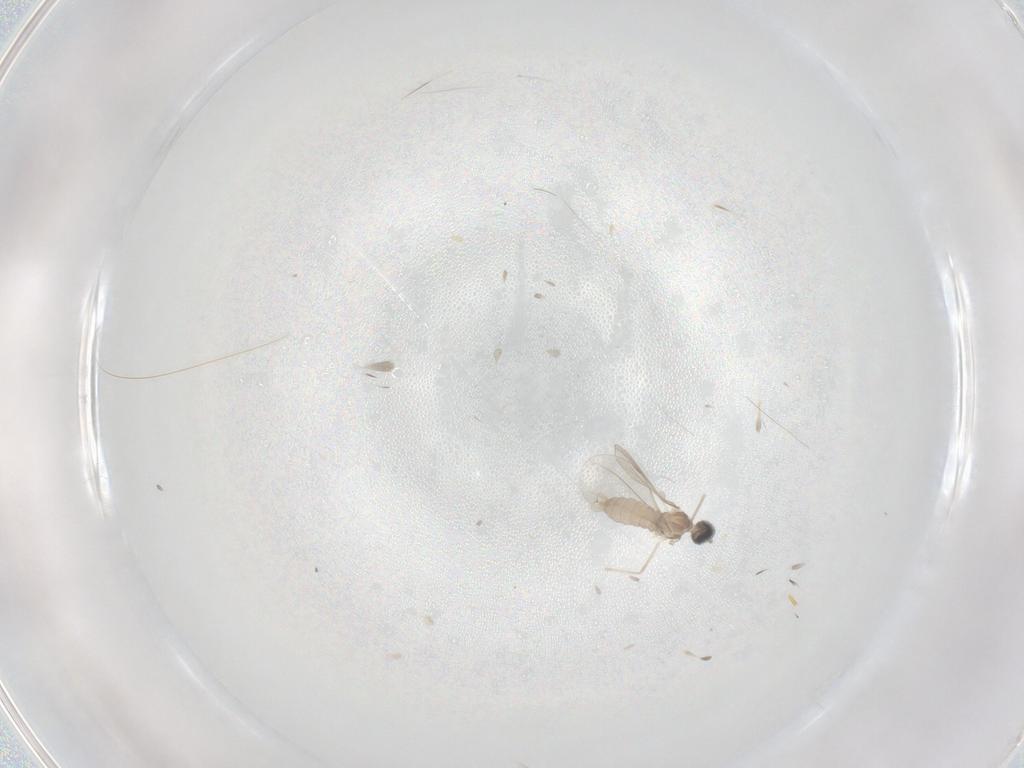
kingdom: Animalia
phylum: Arthropoda
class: Insecta
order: Diptera
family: Cecidomyiidae
